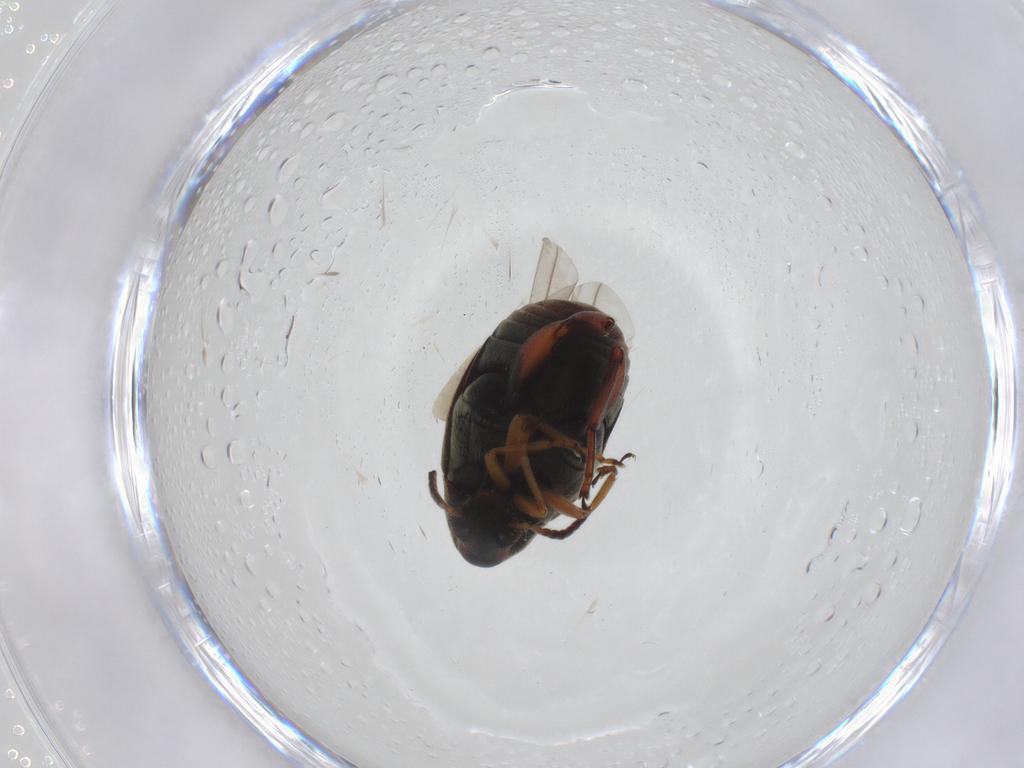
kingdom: Animalia
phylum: Arthropoda
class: Insecta
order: Coleoptera
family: Chrysomelidae
